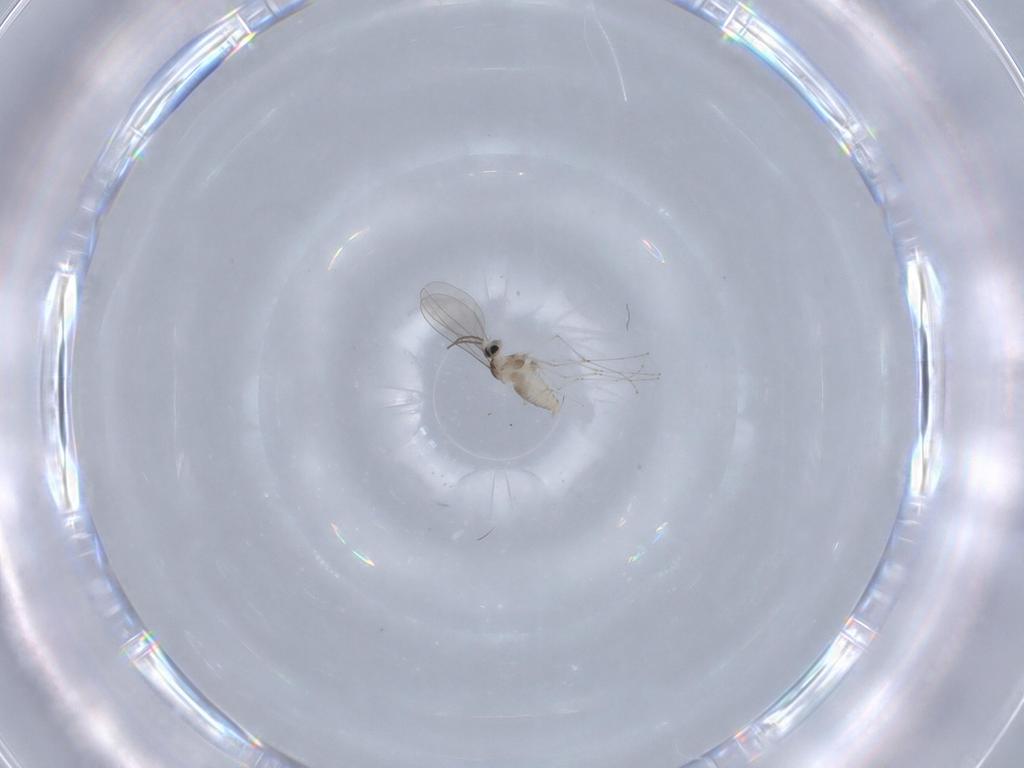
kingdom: Animalia
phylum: Arthropoda
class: Insecta
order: Diptera
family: Cecidomyiidae
